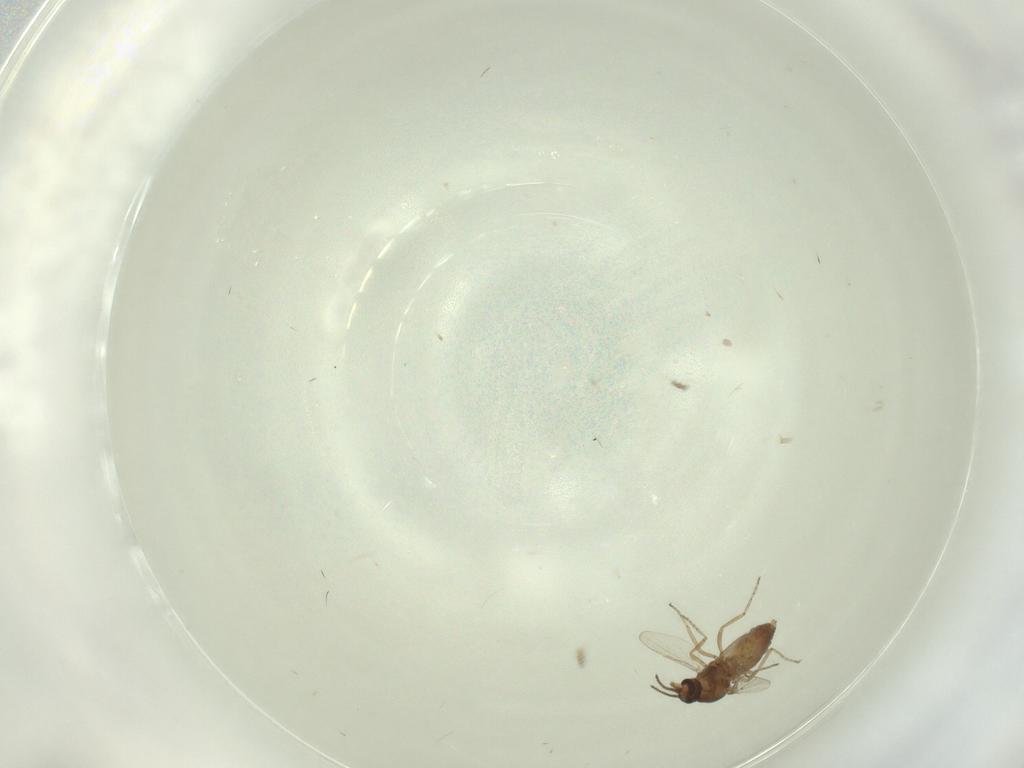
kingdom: Animalia
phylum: Arthropoda
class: Insecta
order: Diptera
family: Ceratopogonidae
